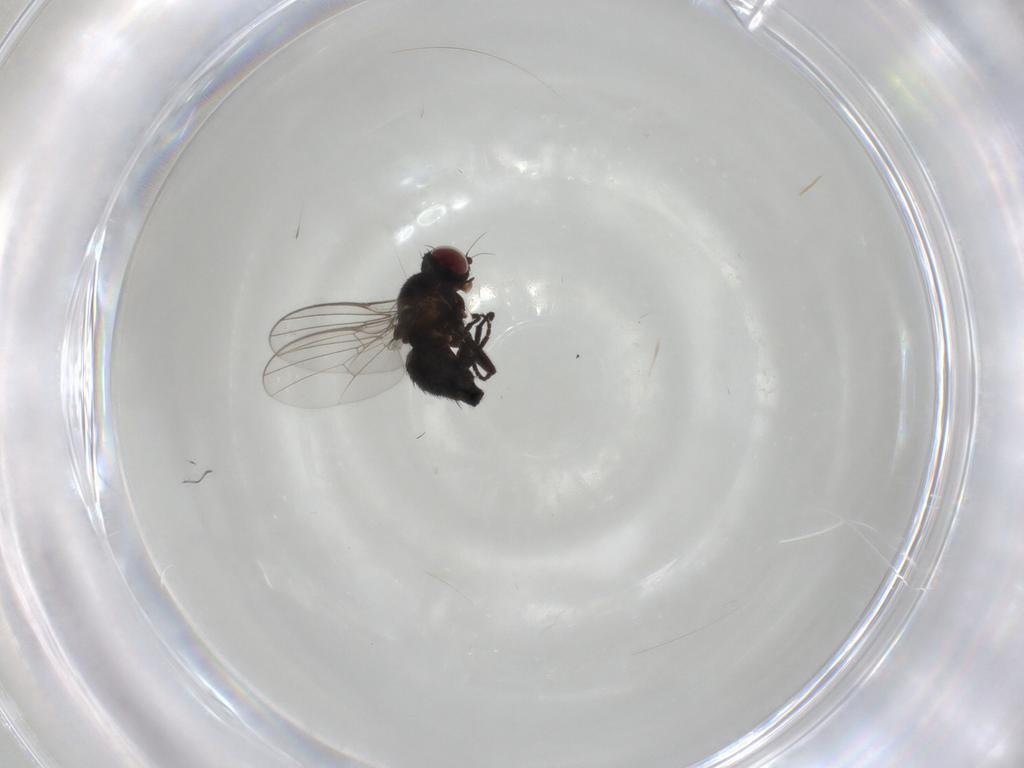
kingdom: Animalia
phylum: Arthropoda
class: Insecta
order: Diptera
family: Agromyzidae
